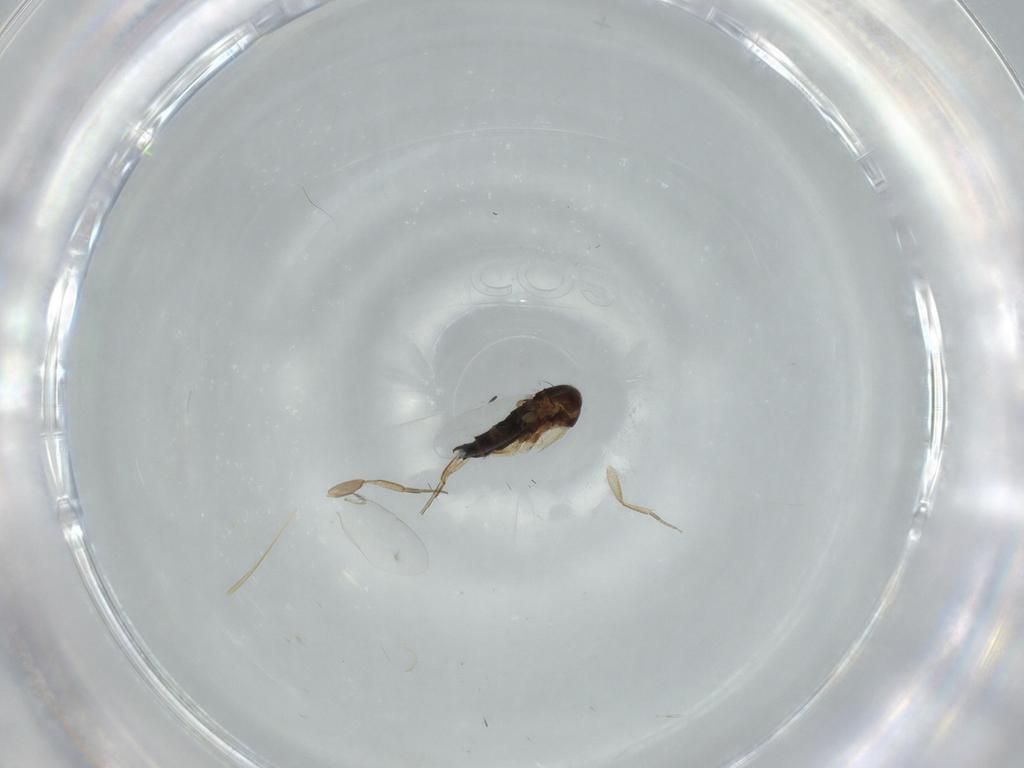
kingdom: Animalia
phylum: Arthropoda
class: Insecta
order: Diptera
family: Phoridae
